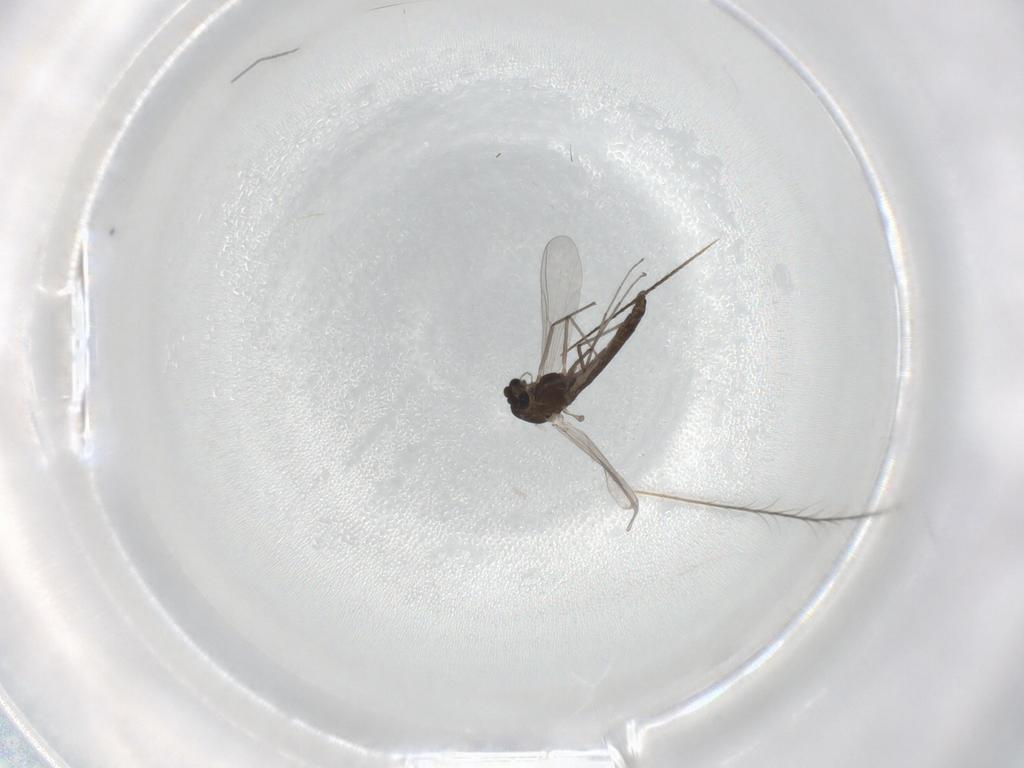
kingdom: Animalia
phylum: Arthropoda
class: Insecta
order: Diptera
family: Chironomidae
